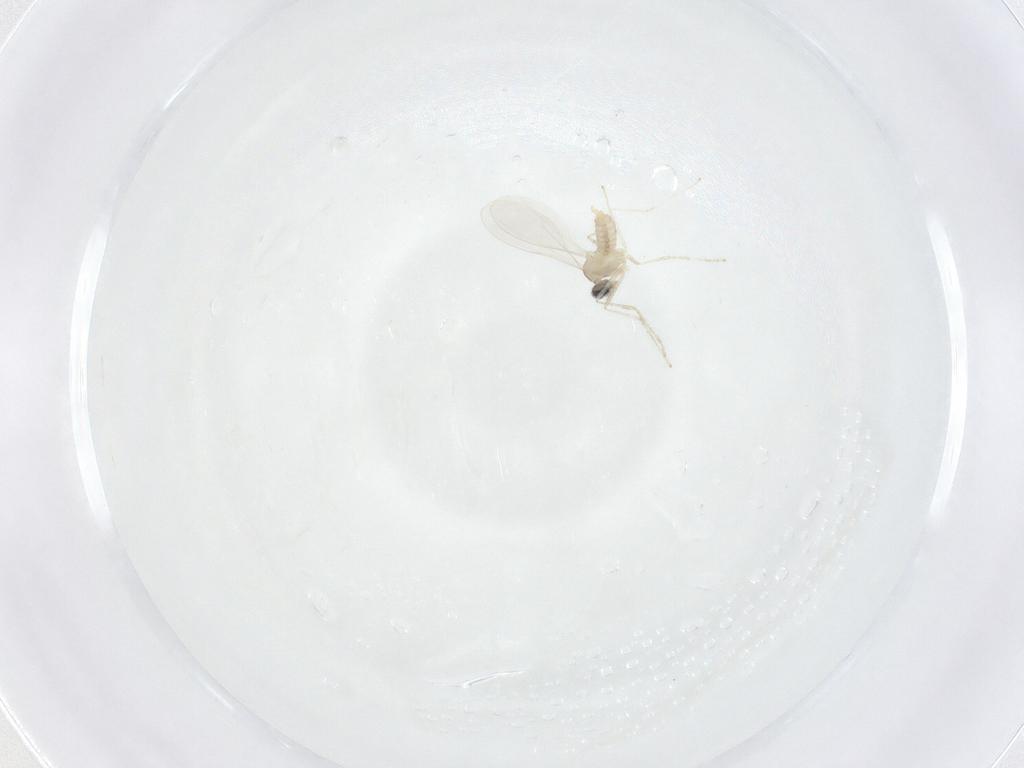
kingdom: Animalia
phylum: Arthropoda
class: Insecta
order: Diptera
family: Cecidomyiidae
